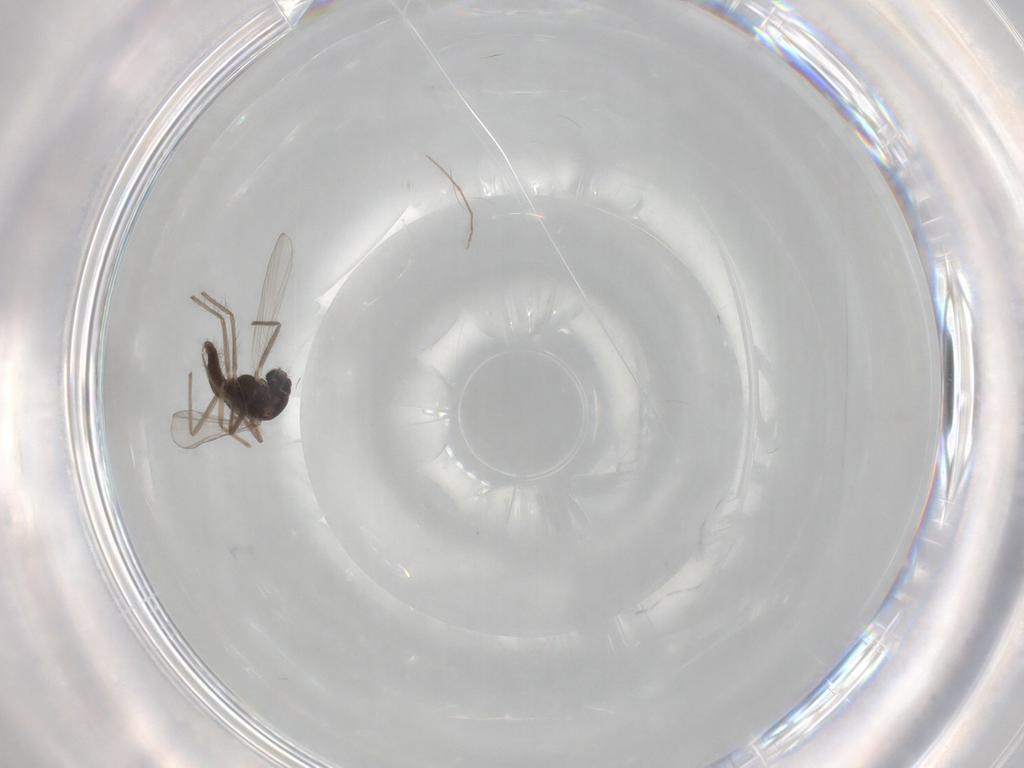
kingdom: Animalia
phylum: Arthropoda
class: Insecta
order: Diptera
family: Chironomidae
